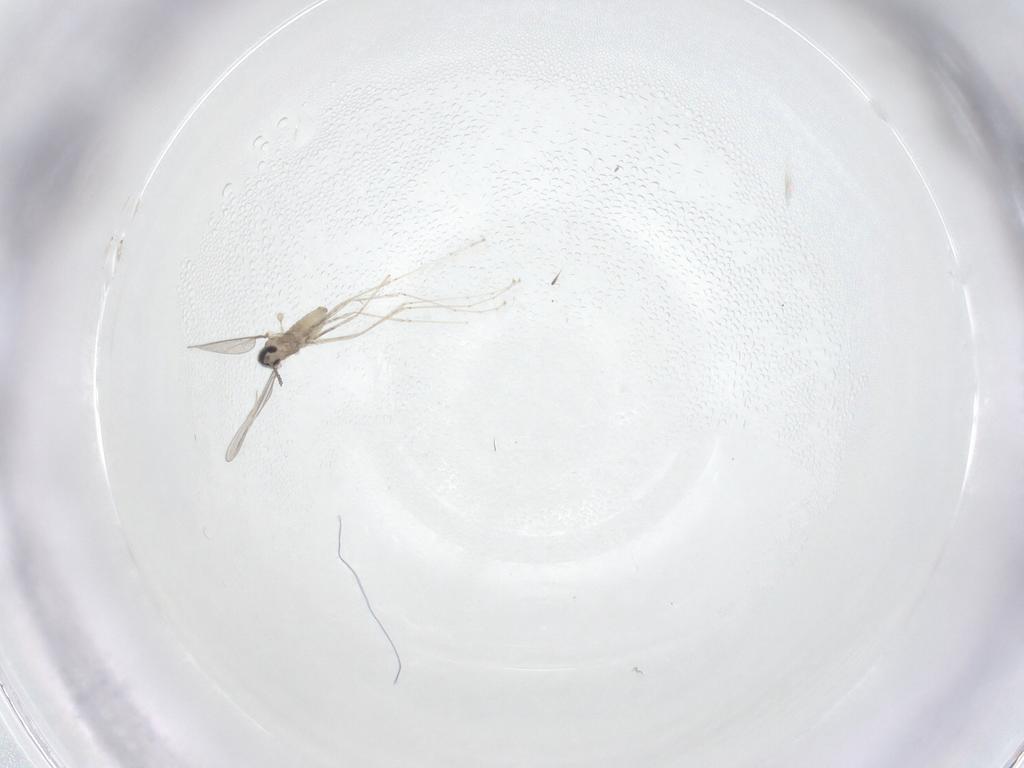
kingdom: Animalia
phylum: Arthropoda
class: Insecta
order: Diptera
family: Chironomidae
